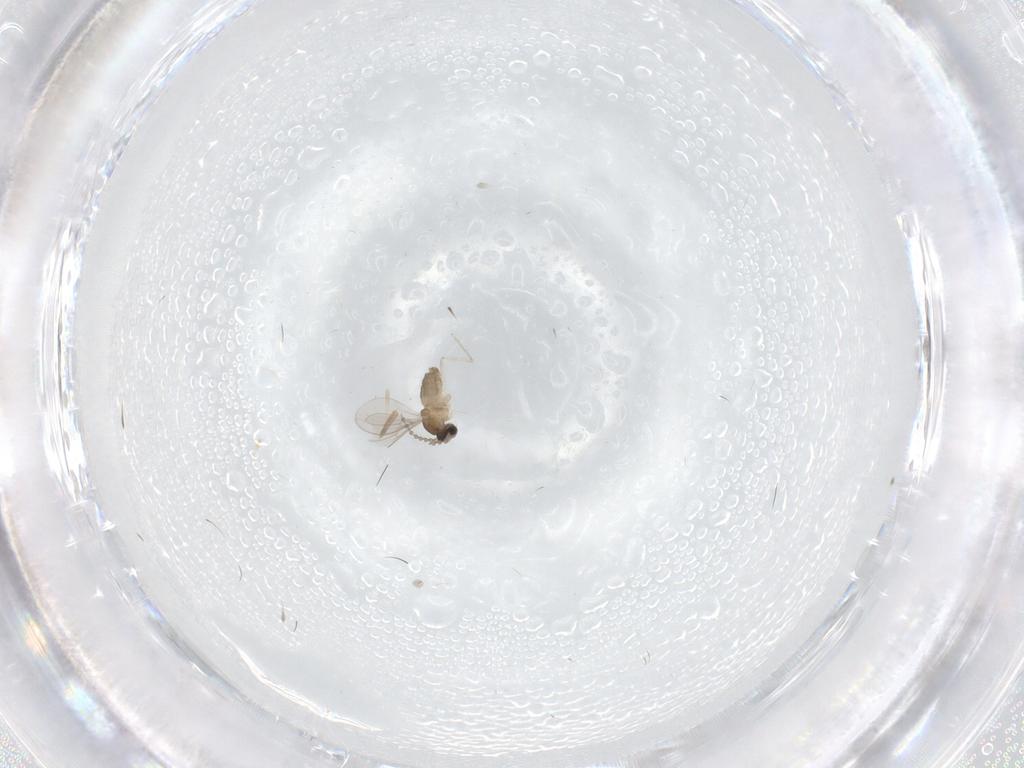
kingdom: Animalia
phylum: Arthropoda
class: Insecta
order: Diptera
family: Cecidomyiidae
